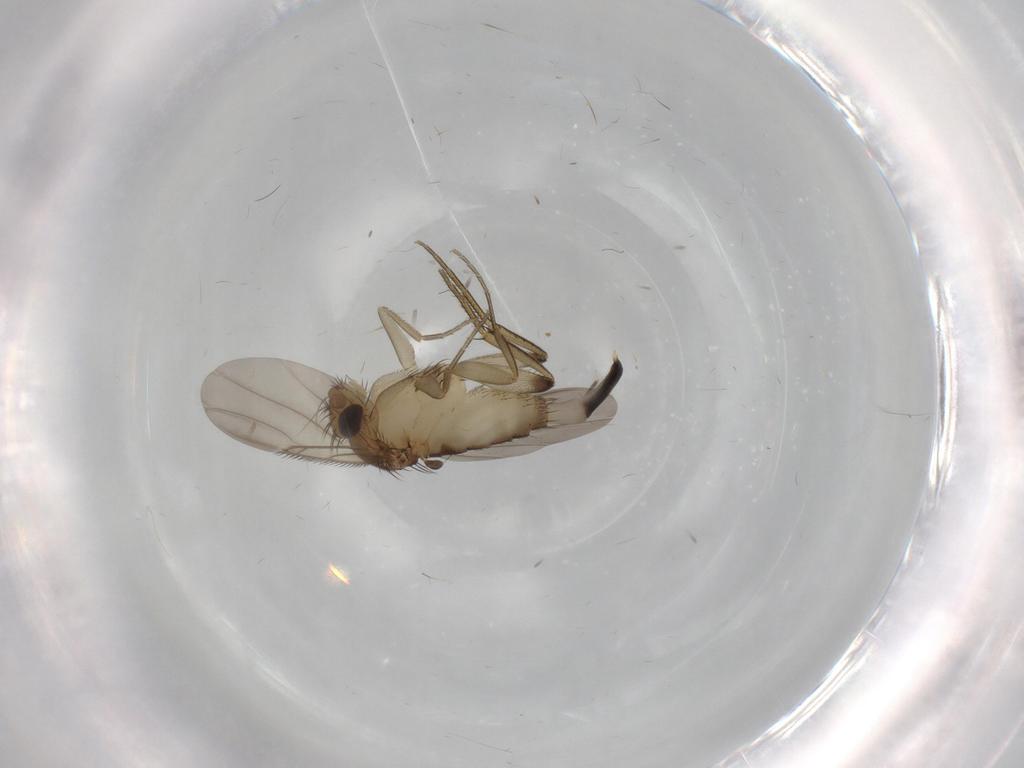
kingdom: Animalia
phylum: Arthropoda
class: Insecta
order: Diptera
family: Phoridae
